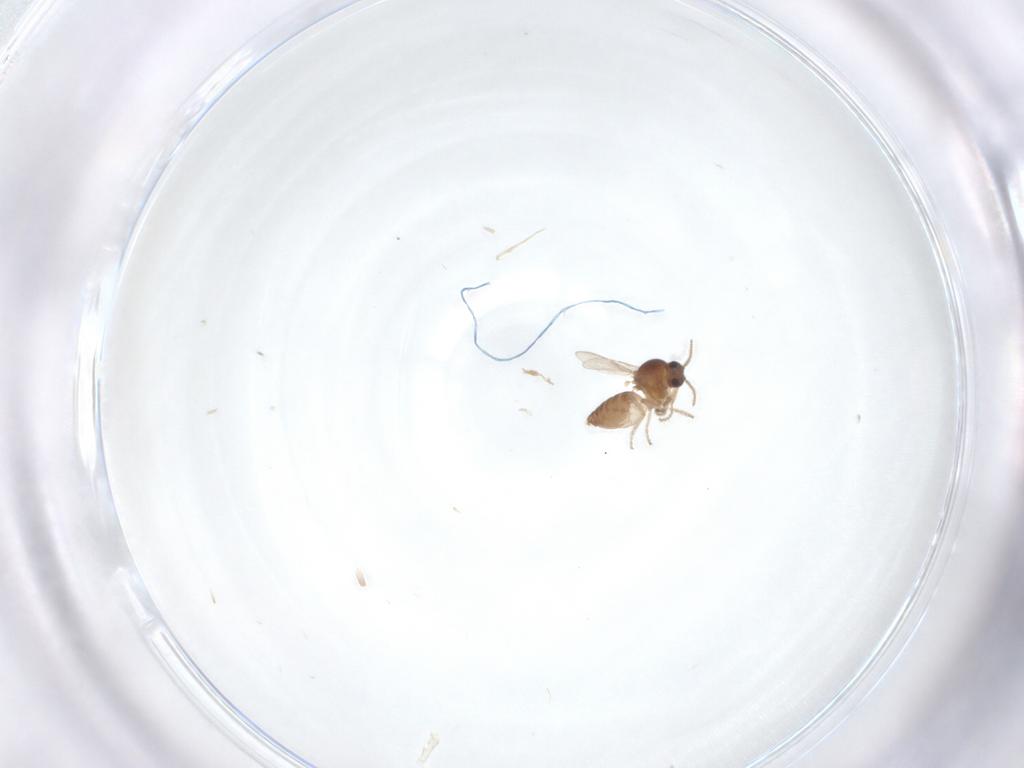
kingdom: Animalia
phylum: Arthropoda
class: Insecta
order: Diptera
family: Ceratopogonidae
